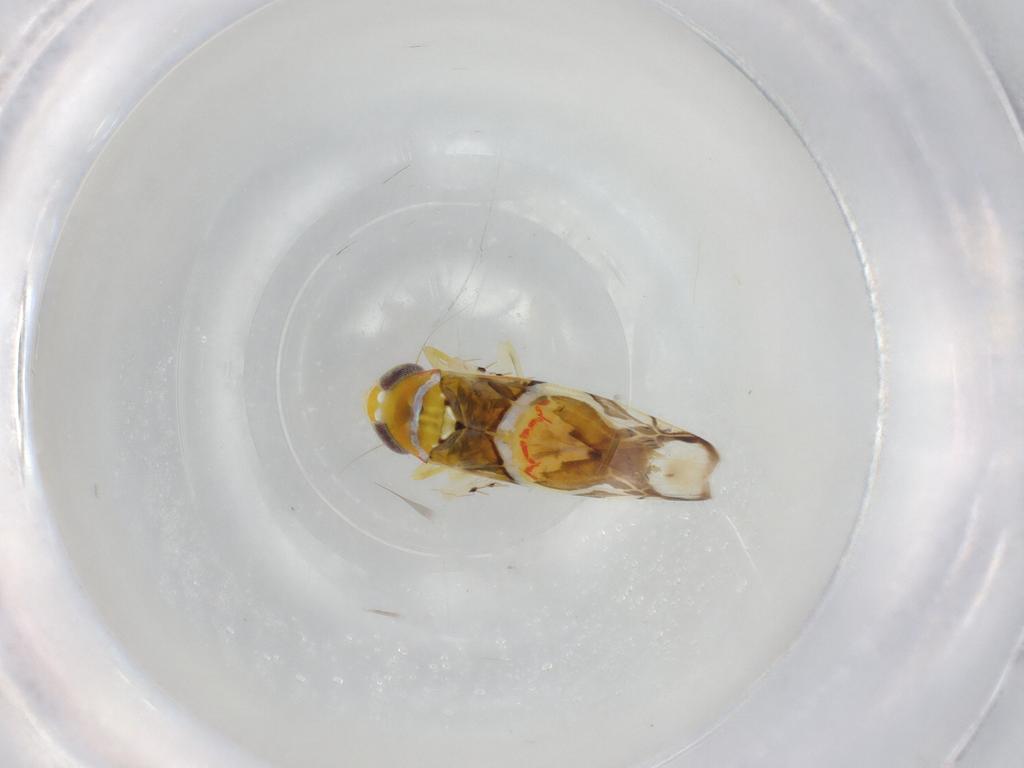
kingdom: Animalia
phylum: Arthropoda
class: Insecta
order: Hemiptera
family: Cicadellidae
